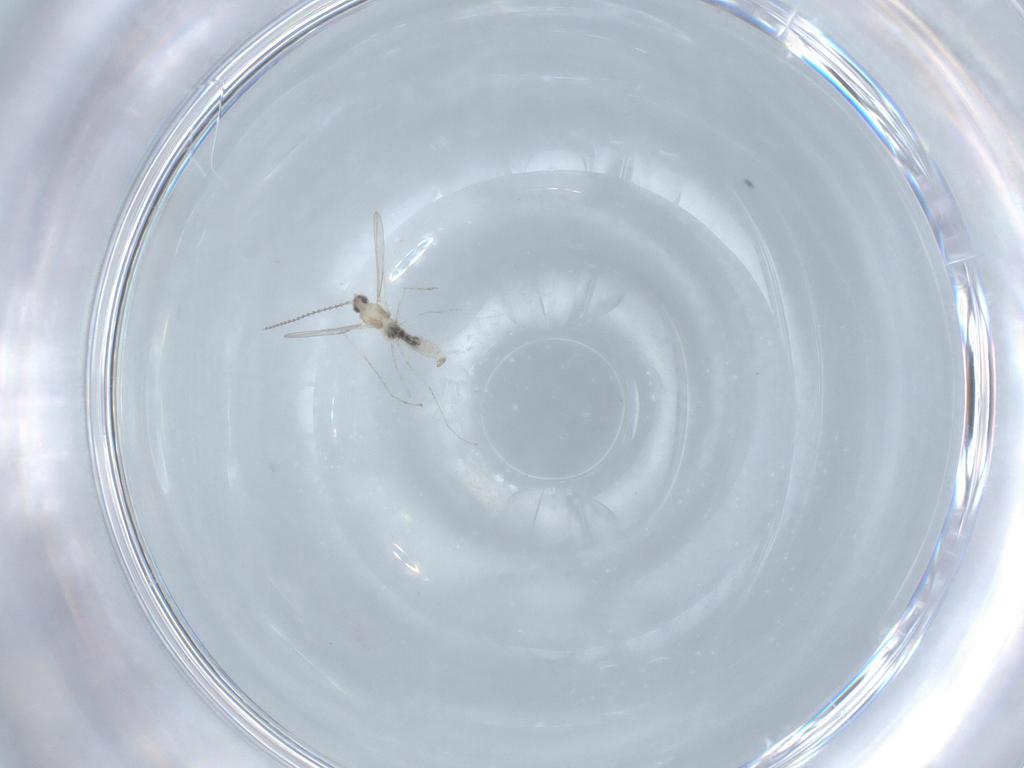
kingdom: Animalia
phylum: Arthropoda
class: Insecta
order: Diptera
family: Cecidomyiidae
